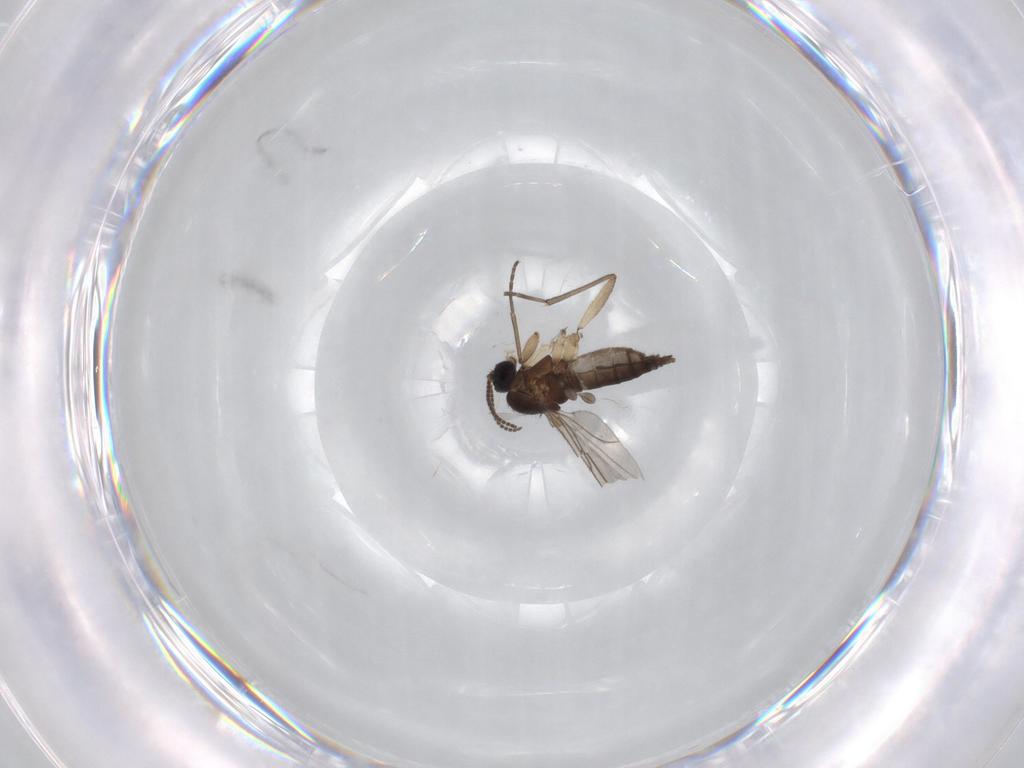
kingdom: Animalia
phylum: Arthropoda
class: Insecta
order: Diptera
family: Sciaridae
